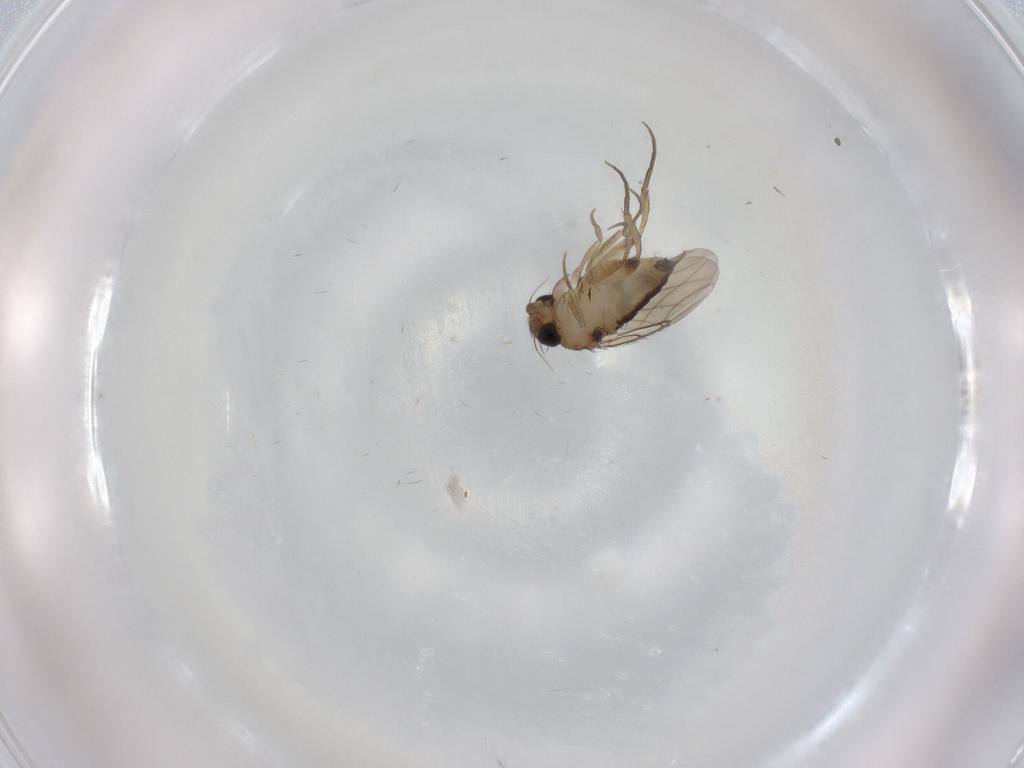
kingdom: Animalia
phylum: Arthropoda
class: Insecta
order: Diptera
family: Phoridae
